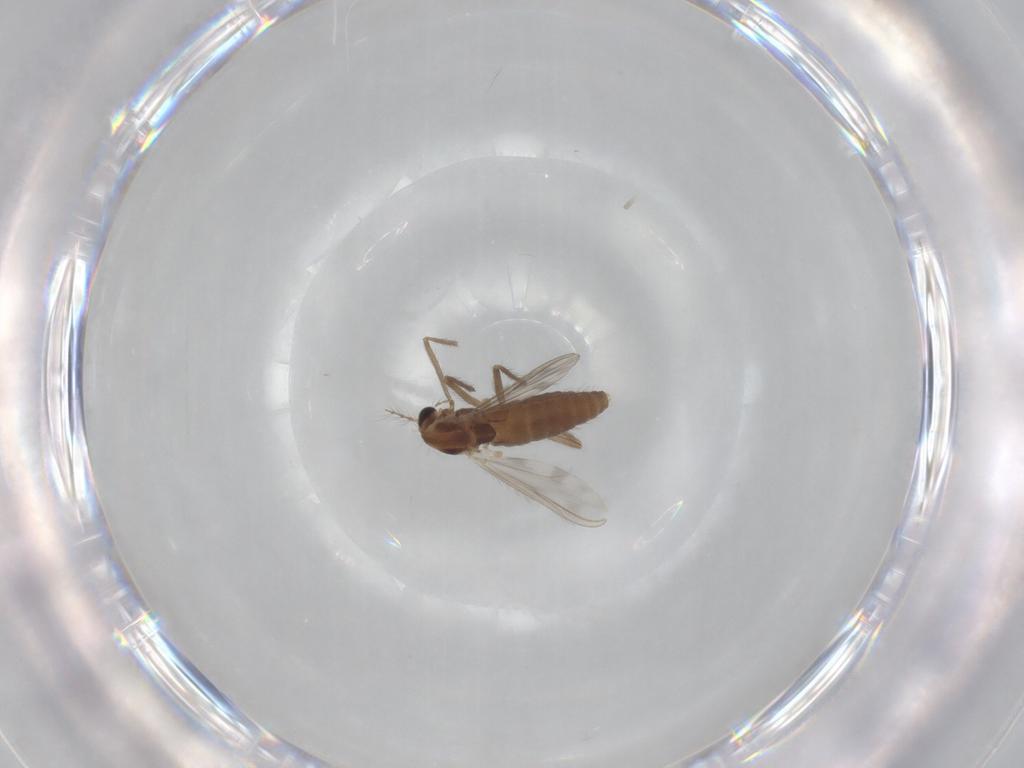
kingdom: Animalia
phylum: Arthropoda
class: Insecta
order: Diptera
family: Chironomidae
